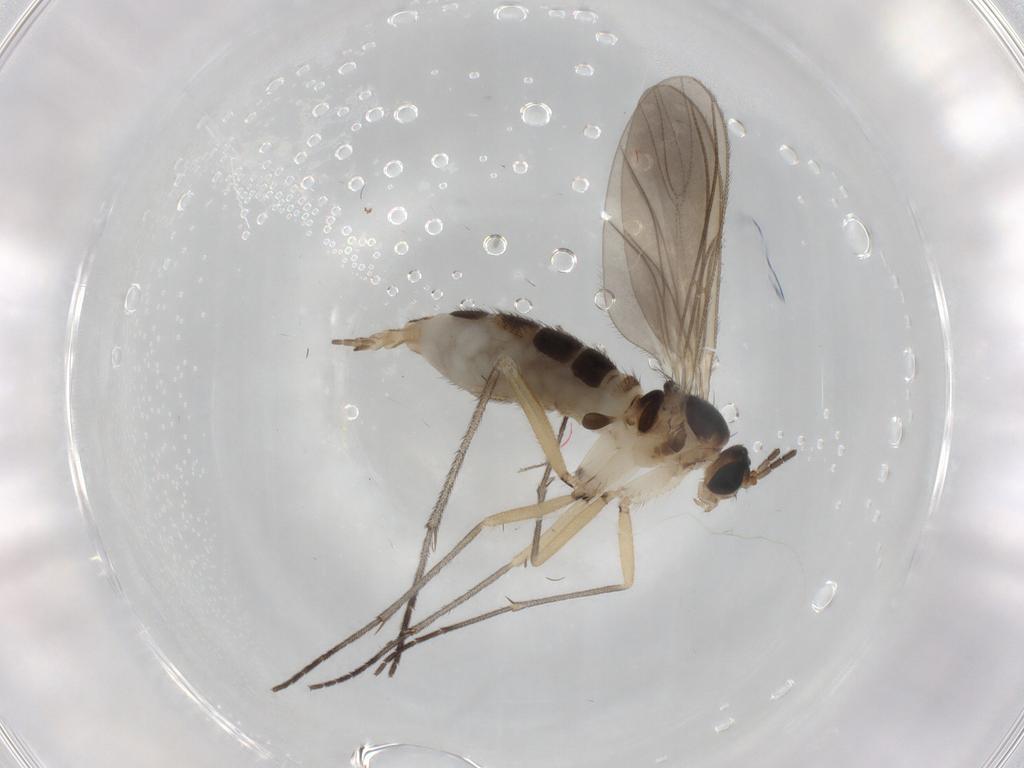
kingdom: Animalia
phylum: Arthropoda
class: Insecta
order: Diptera
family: Sciaridae
